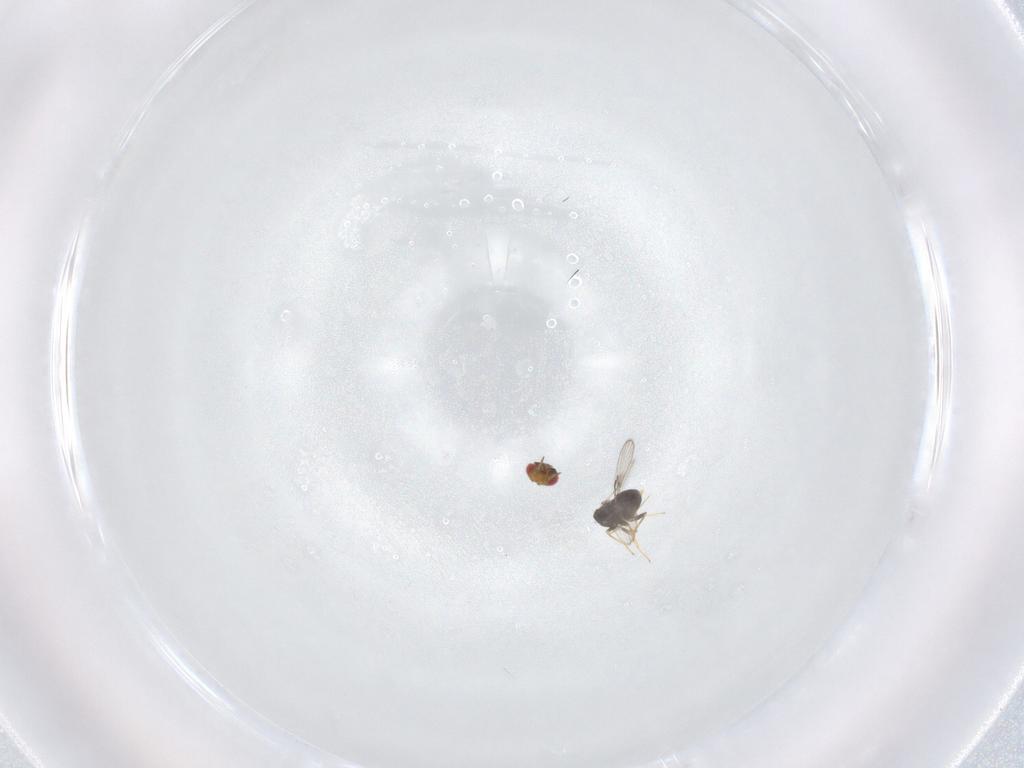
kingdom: Animalia
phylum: Arthropoda
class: Insecta
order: Hymenoptera
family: Trichogrammatidae
